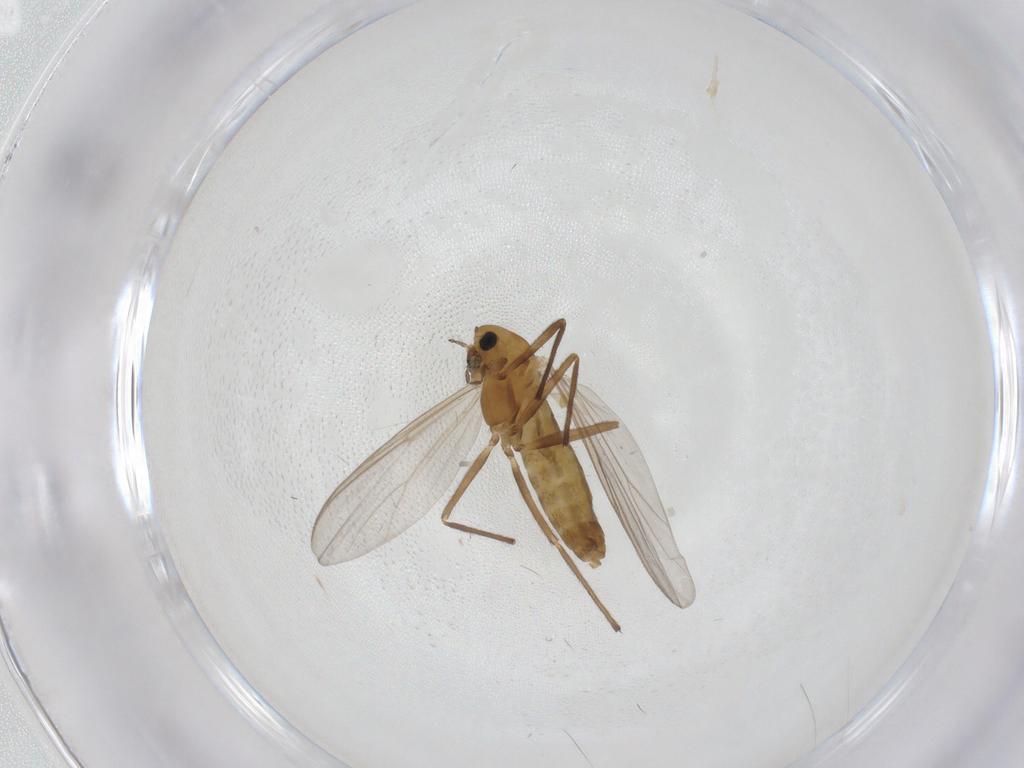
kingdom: Animalia
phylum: Arthropoda
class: Insecta
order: Diptera
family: Chironomidae
